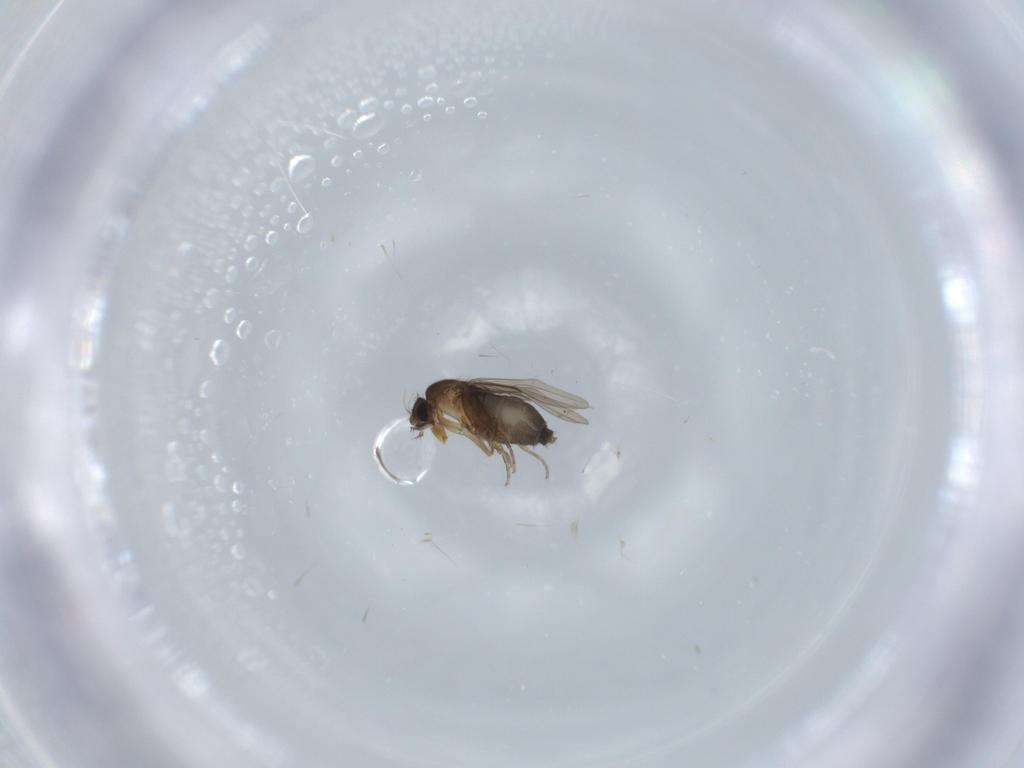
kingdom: Animalia
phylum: Arthropoda
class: Insecta
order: Diptera
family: Phoridae
